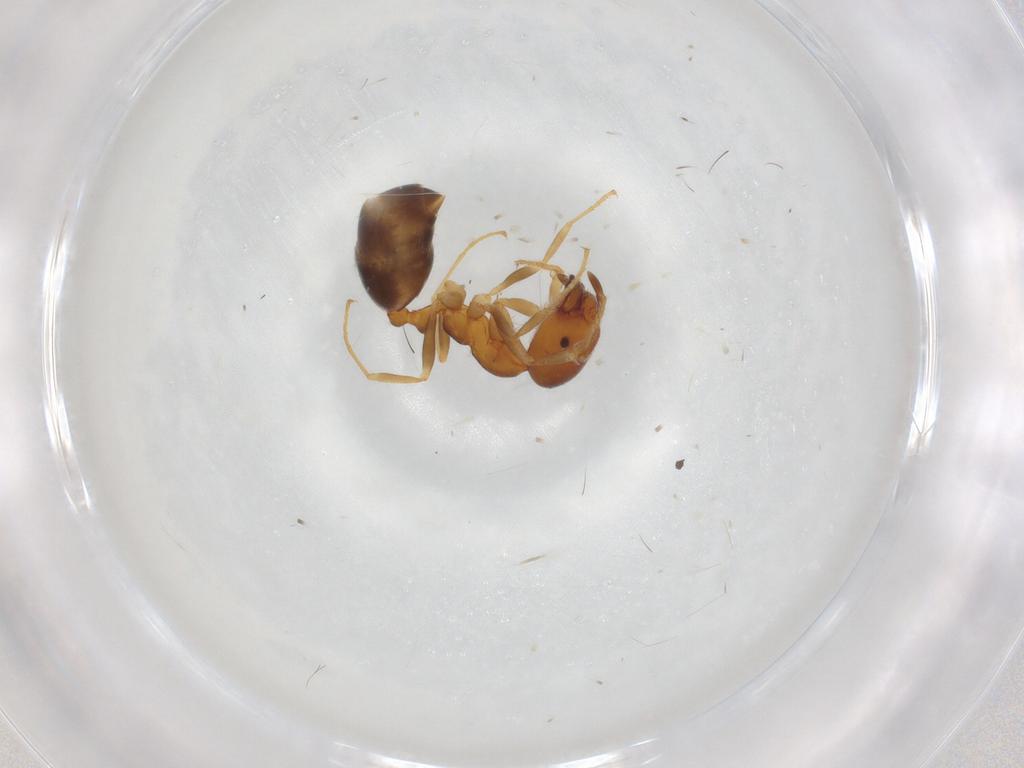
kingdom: Animalia
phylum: Arthropoda
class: Insecta
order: Hymenoptera
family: Formicidae
